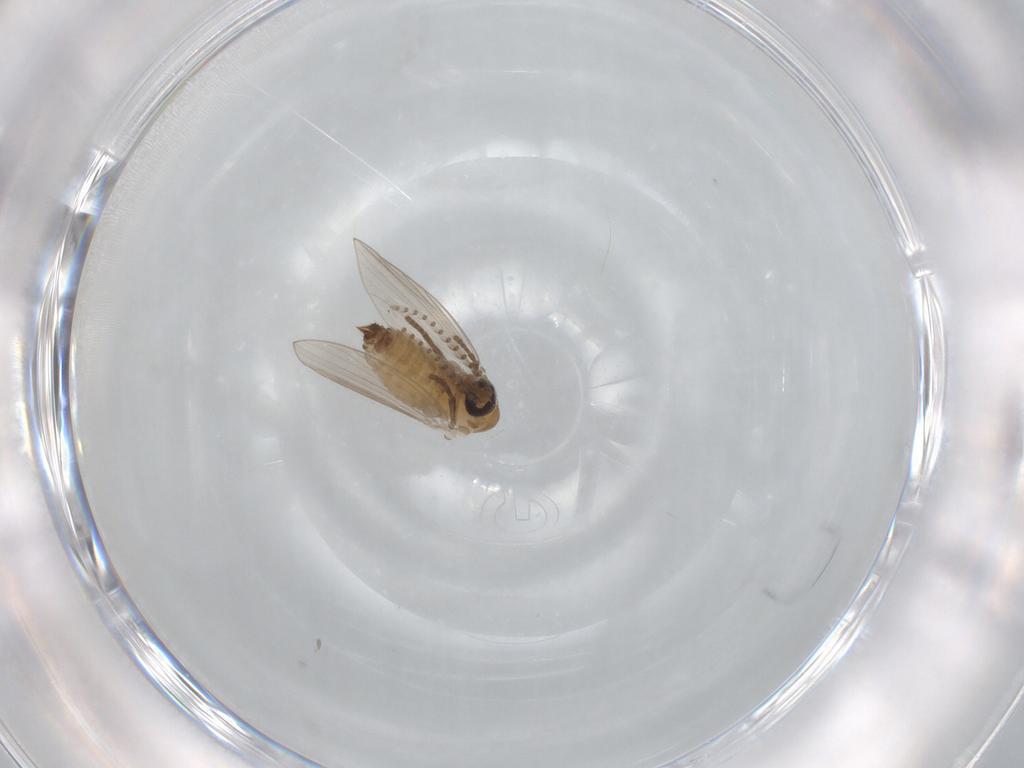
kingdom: Animalia
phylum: Arthropoda
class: Insecta
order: Diptera
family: Psychodidae
